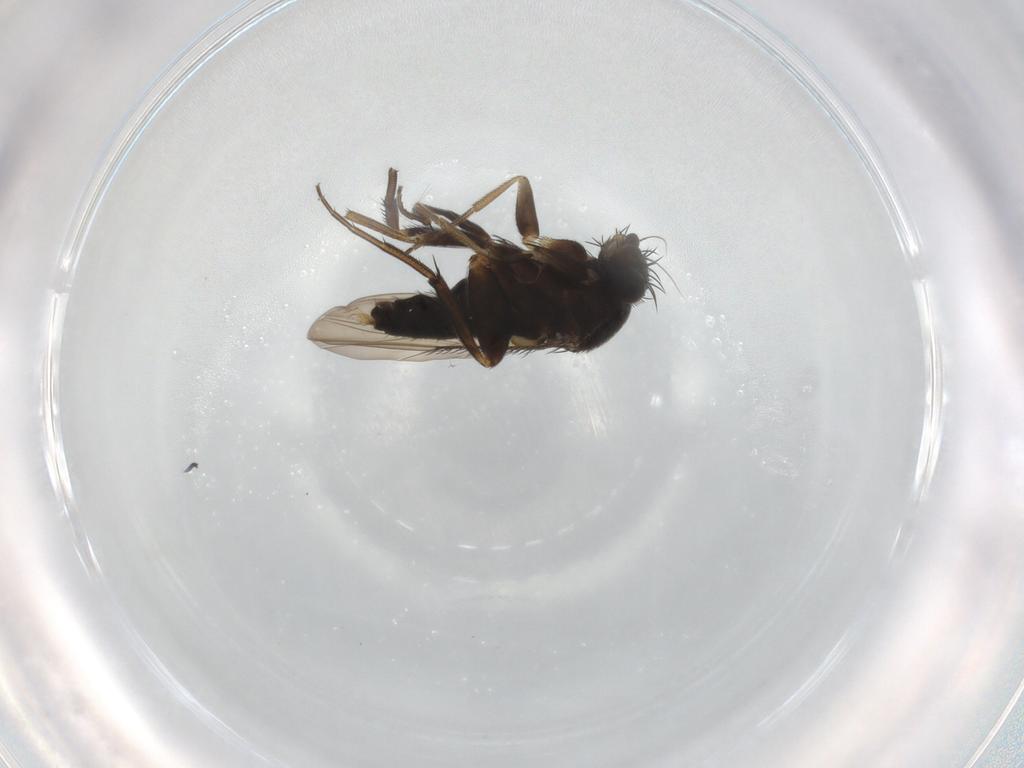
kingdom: Animalia
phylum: Arthropoda
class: Insecta
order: Diptera
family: Phoridae
